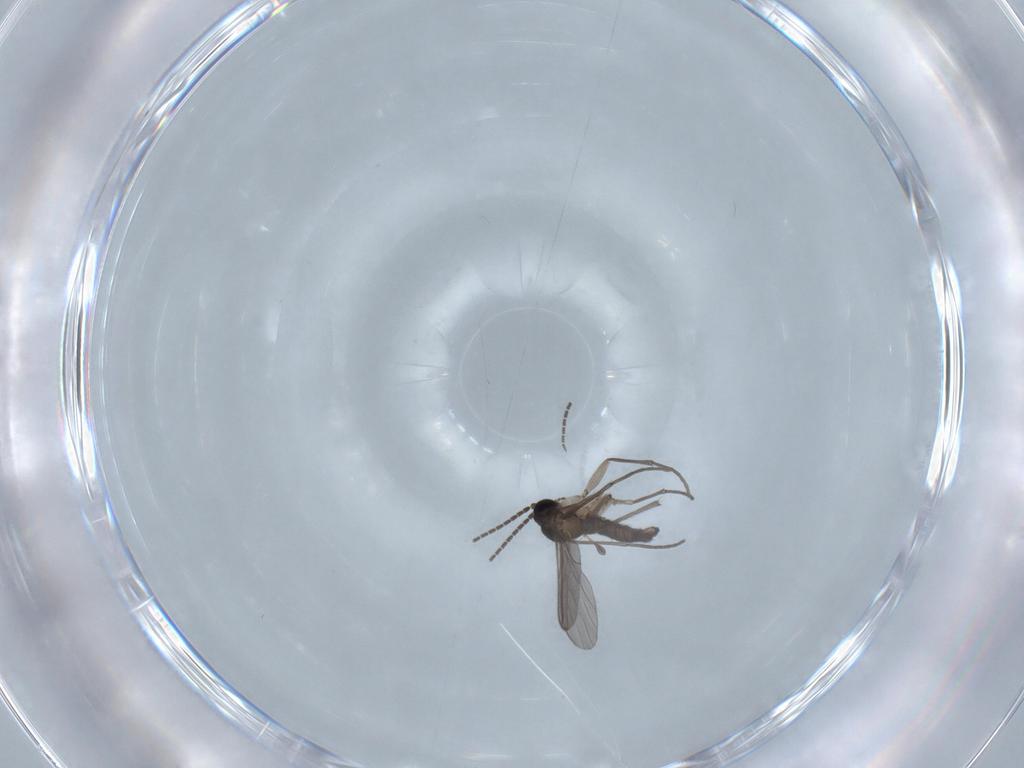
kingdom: Animalia
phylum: Arthropoda
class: Insecta
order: Diptera
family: Sciaridae
